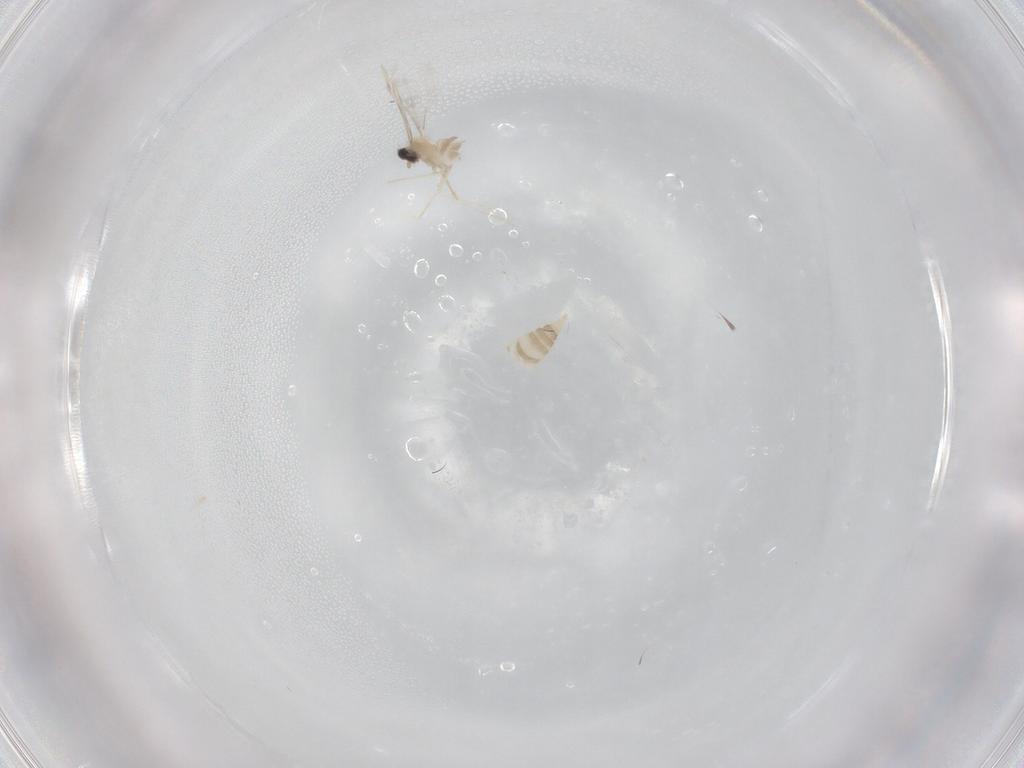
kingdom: Animalia
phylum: Arthropoda
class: Insecta
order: Diptera
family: Cecidomyiidae
